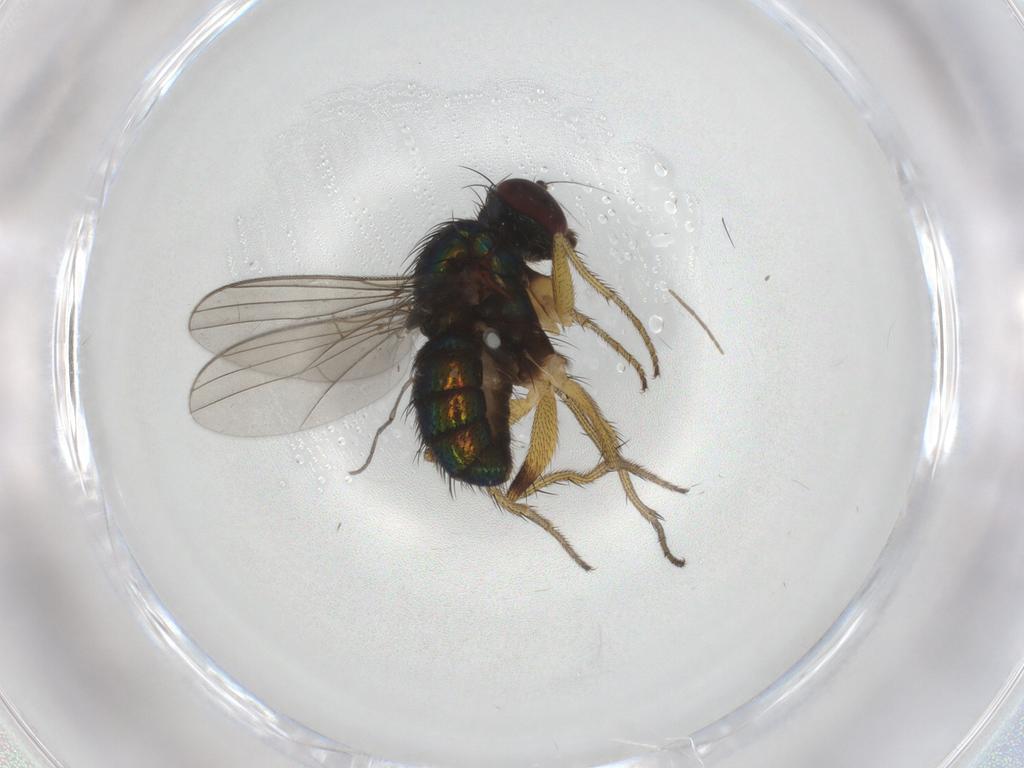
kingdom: Animalia
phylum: Arthropoda
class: Insecta
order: Diptera
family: Dolichopodidae
